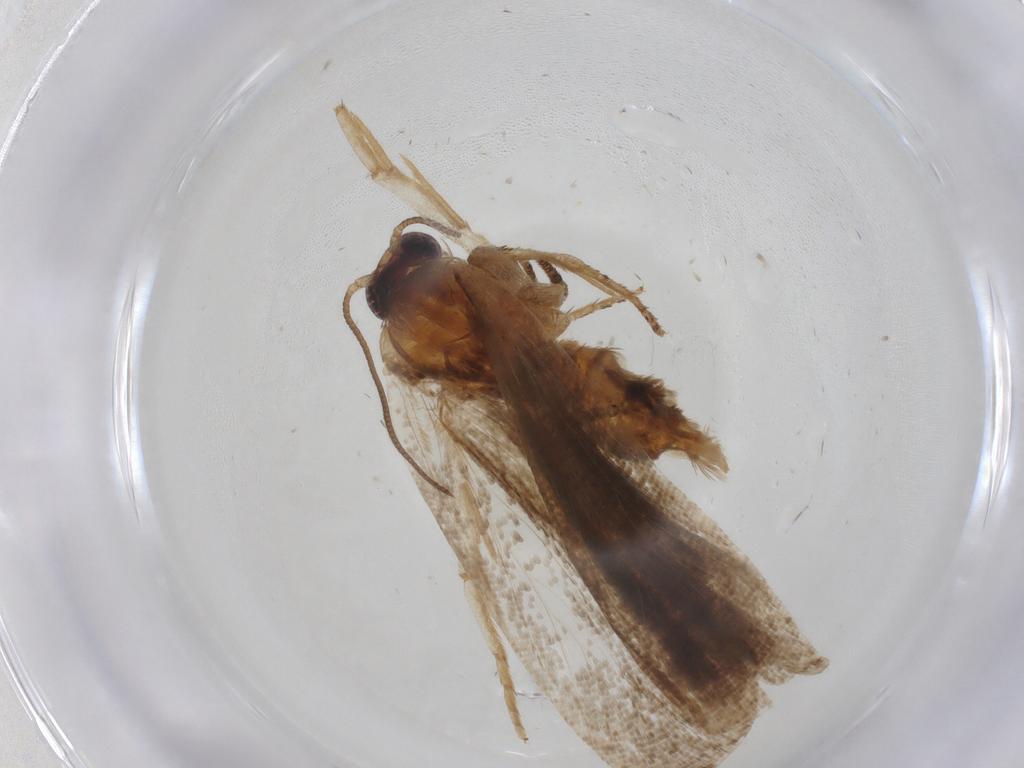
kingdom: Animalia
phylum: Arthropoda
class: Insecta
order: Lepidoptera
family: Tortricidae
